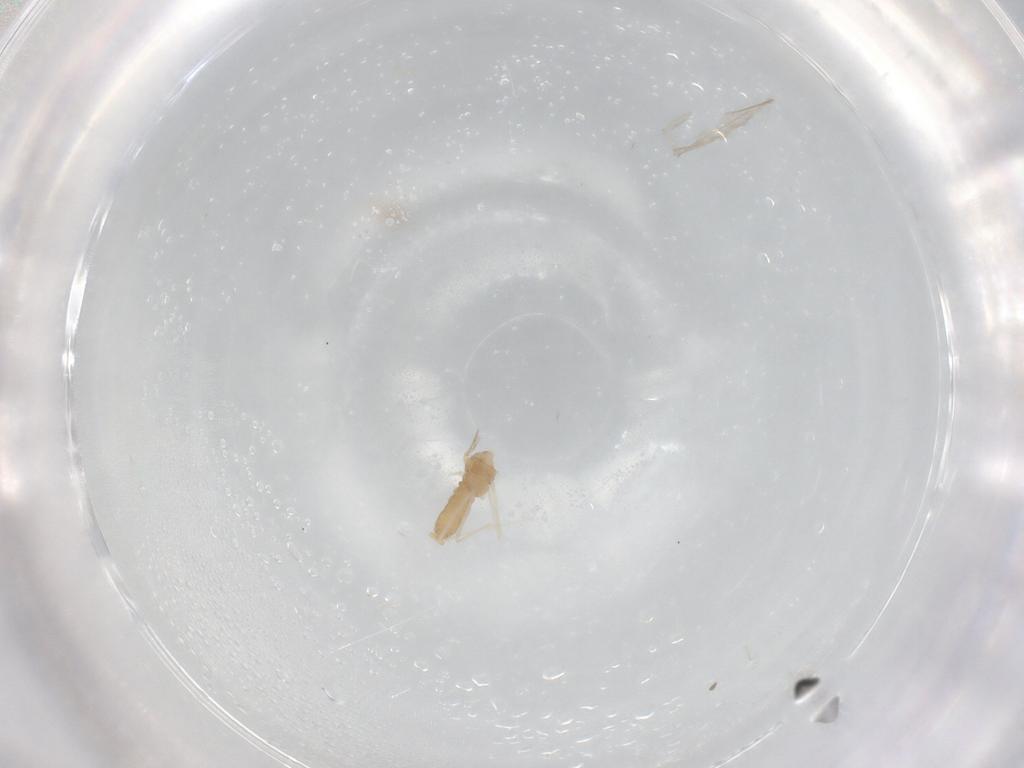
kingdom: Animalia
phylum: Arthropoda
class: Insecta
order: Diptera
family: Cecidomyiidae
